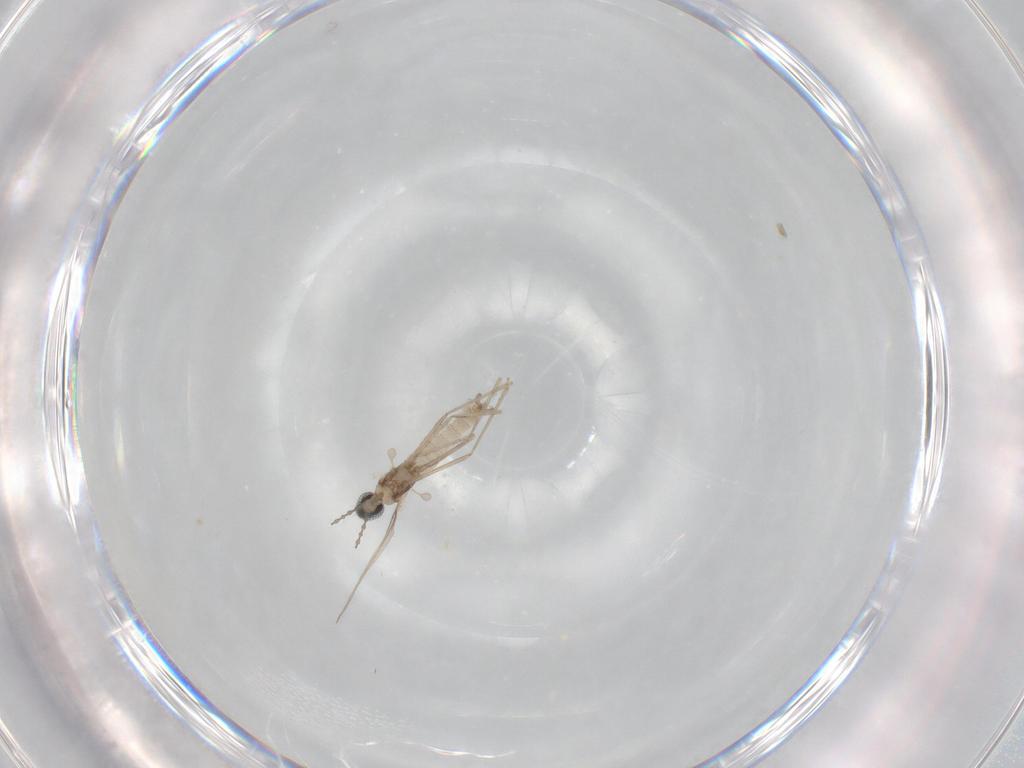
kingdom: Animalia
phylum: Arthropoda
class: Insecta
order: Diptera
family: Cecidomyiidae
